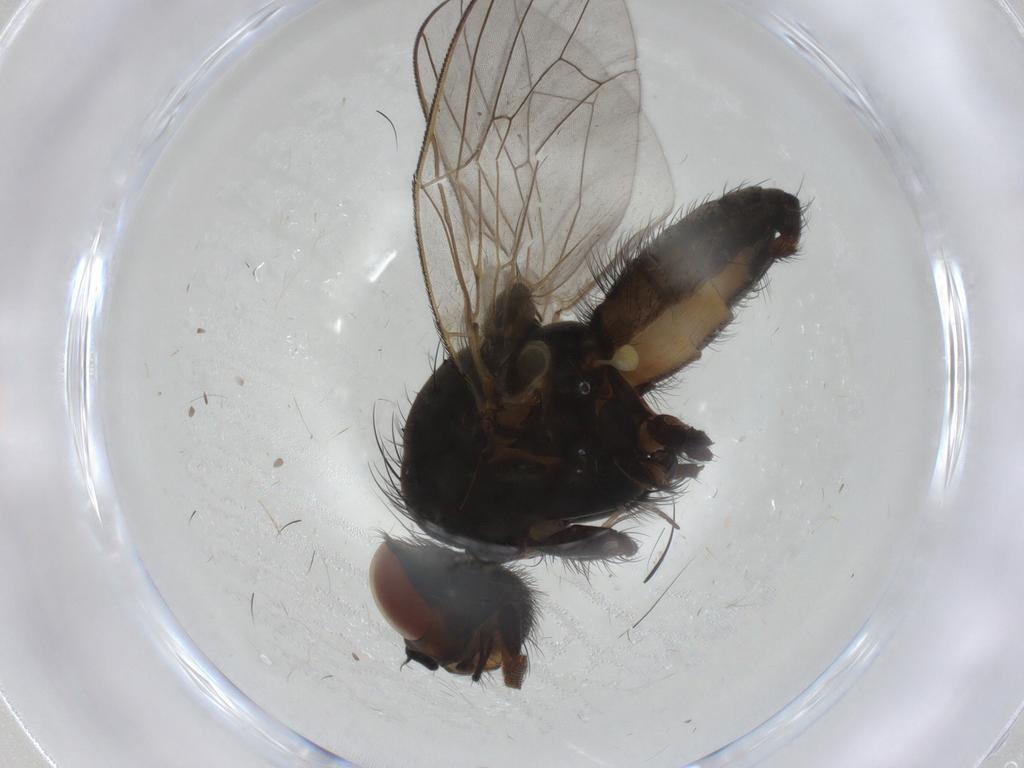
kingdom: Animalia
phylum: Arthropoda
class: Insecta
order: Diptera
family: Anthomyiidae
